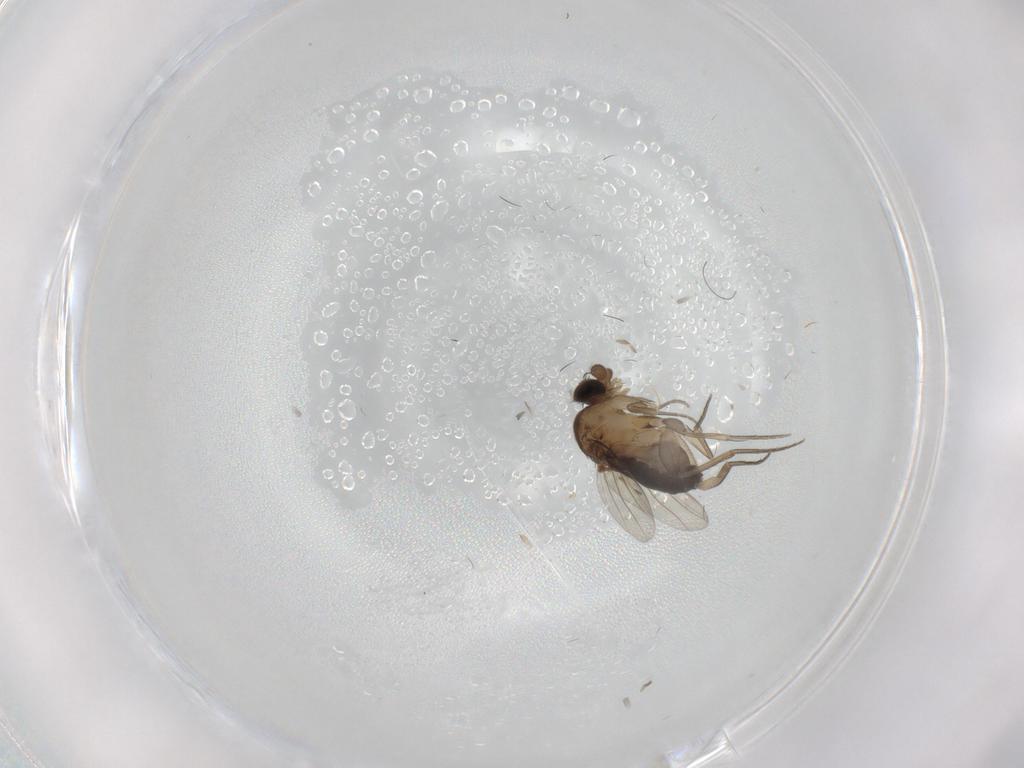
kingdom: Animalia
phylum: Arthropoda
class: Insecta
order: Diptera
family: Phoridae
